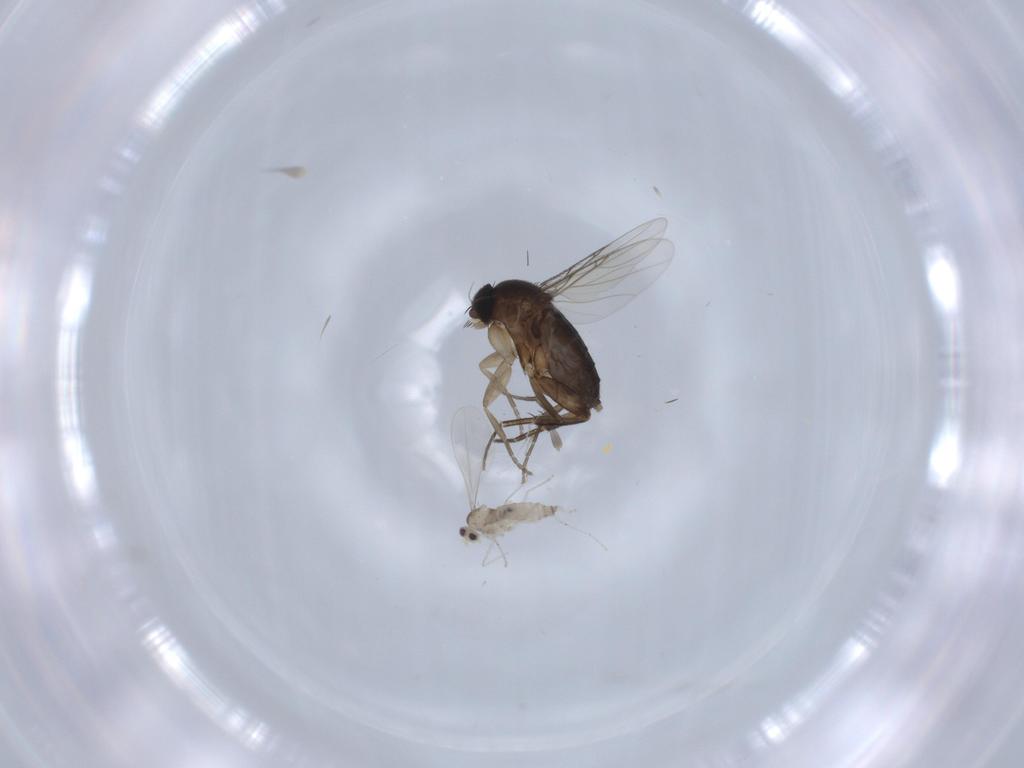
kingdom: Animalia
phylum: Arthropoda
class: Insecta
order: Diptera
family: Phoridae
